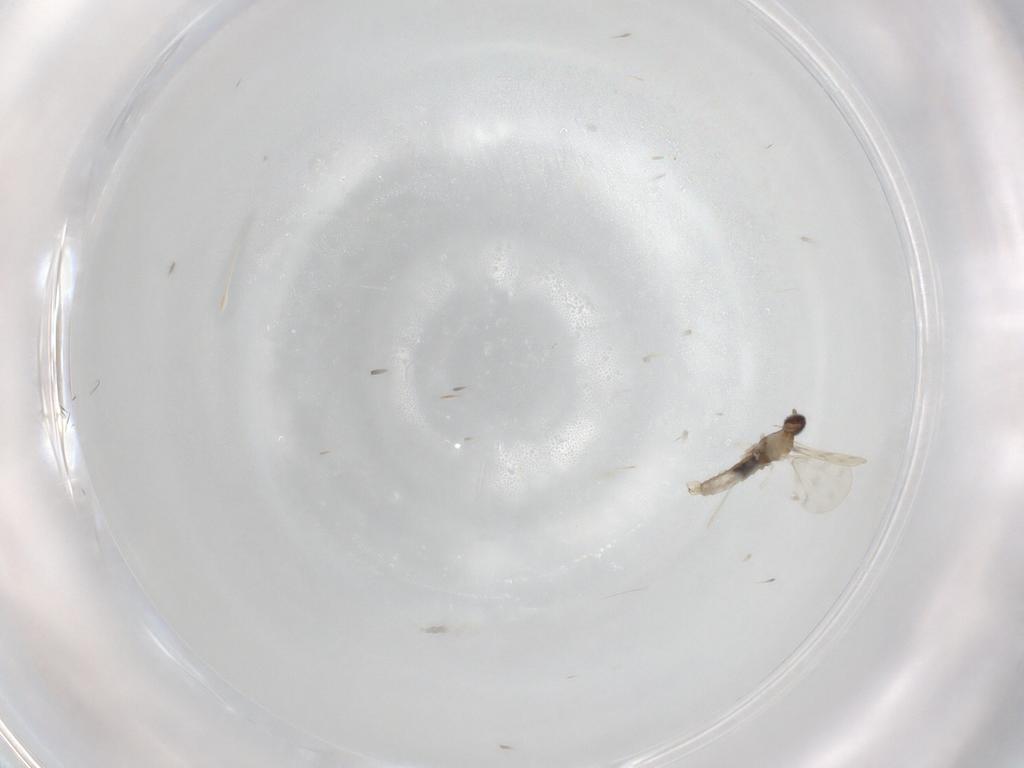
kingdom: Animalia
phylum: Arthropoda
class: Insecta
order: Diptera
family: Cecidomyiidae
